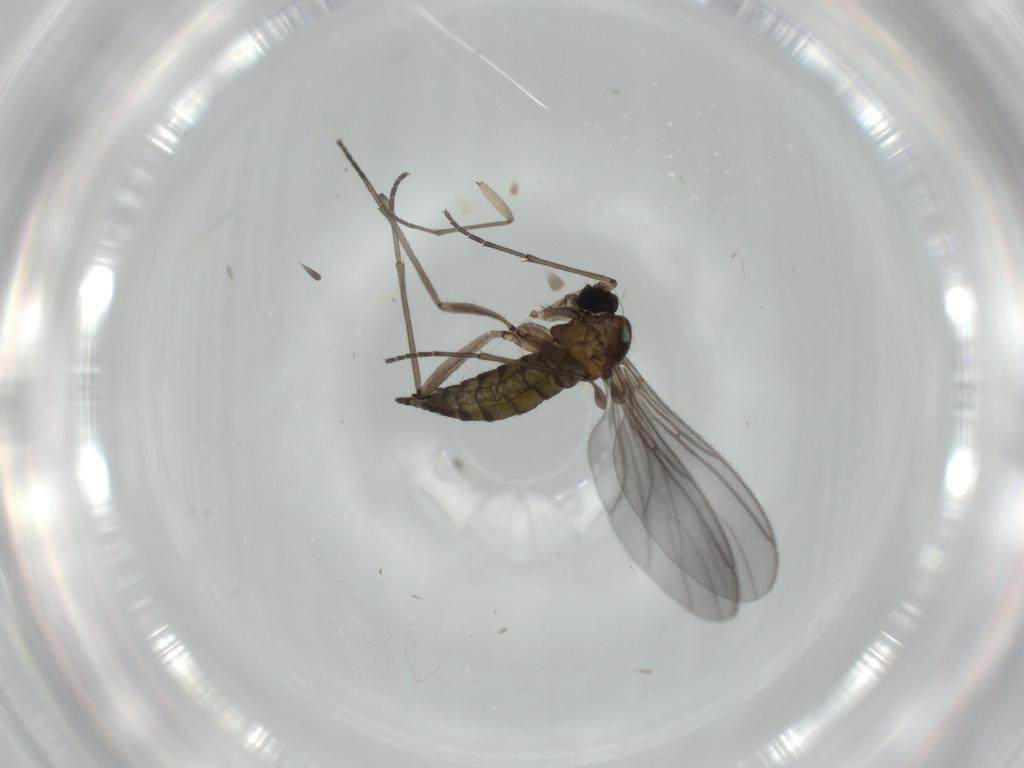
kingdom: Animalia
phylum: Arthropoda
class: Insecta
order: Diptera
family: Sciaridae
